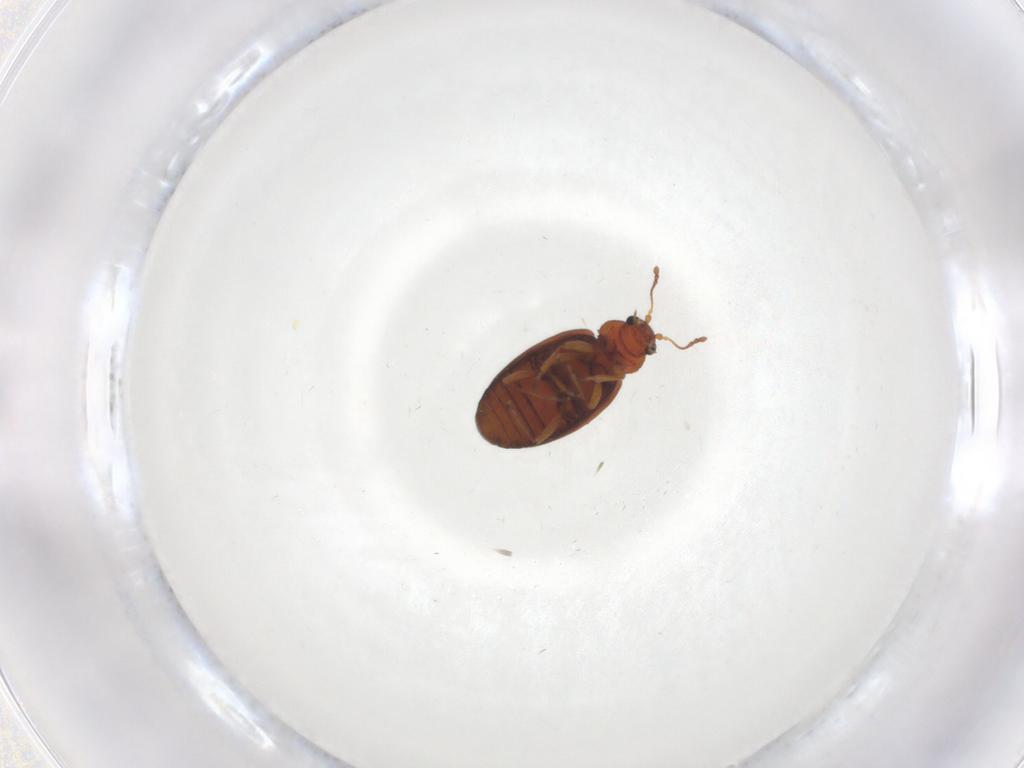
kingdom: Animalia
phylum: Arthropoda
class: Insecta
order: Coleoptera
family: Latridiidae
